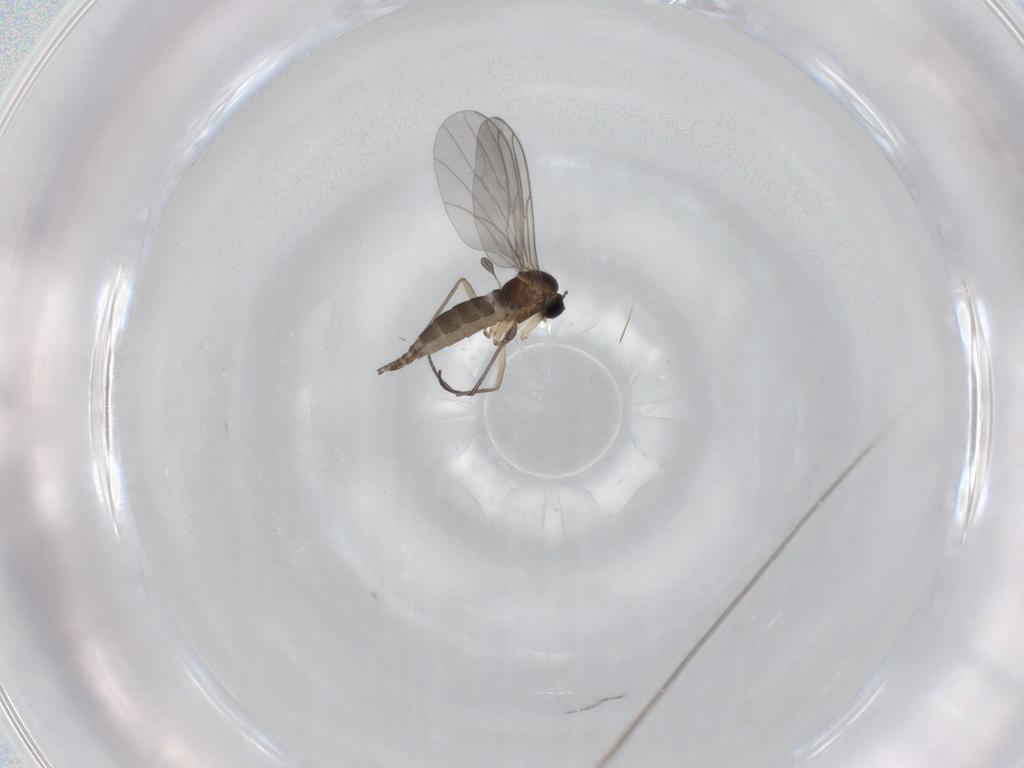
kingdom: Animalia
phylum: Arthropoda
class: Insecta
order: Diptera
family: Sciaridae
